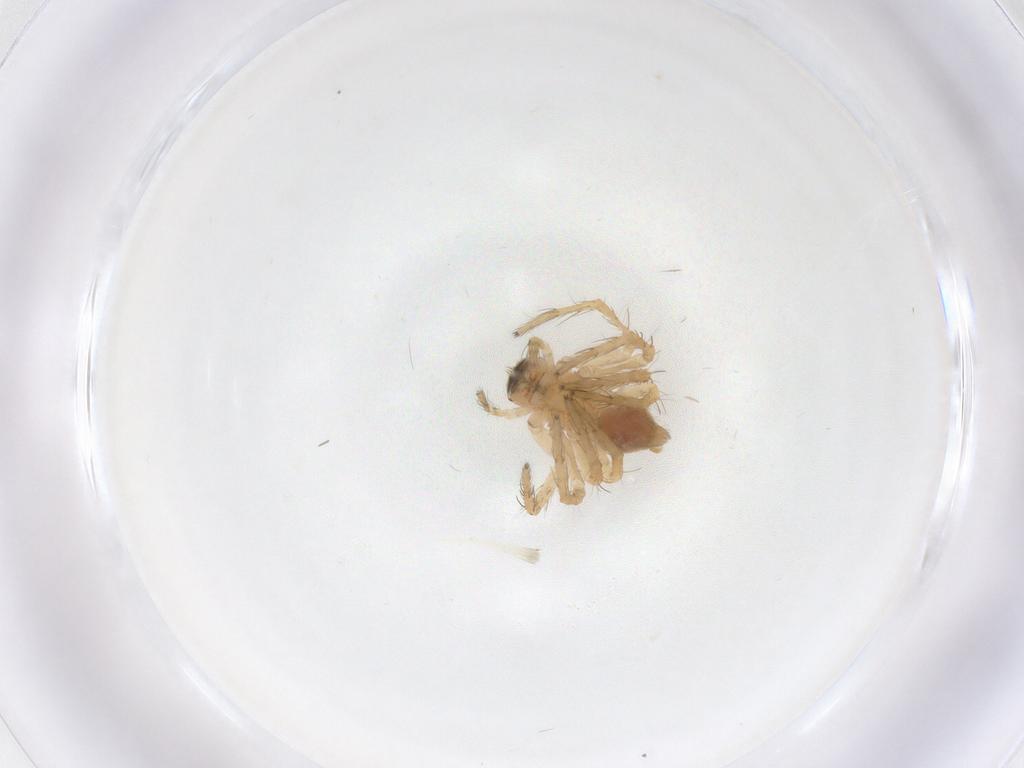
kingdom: Animalia
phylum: Arthropoda
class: Arachnida
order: Araneae
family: Oxyopidae
